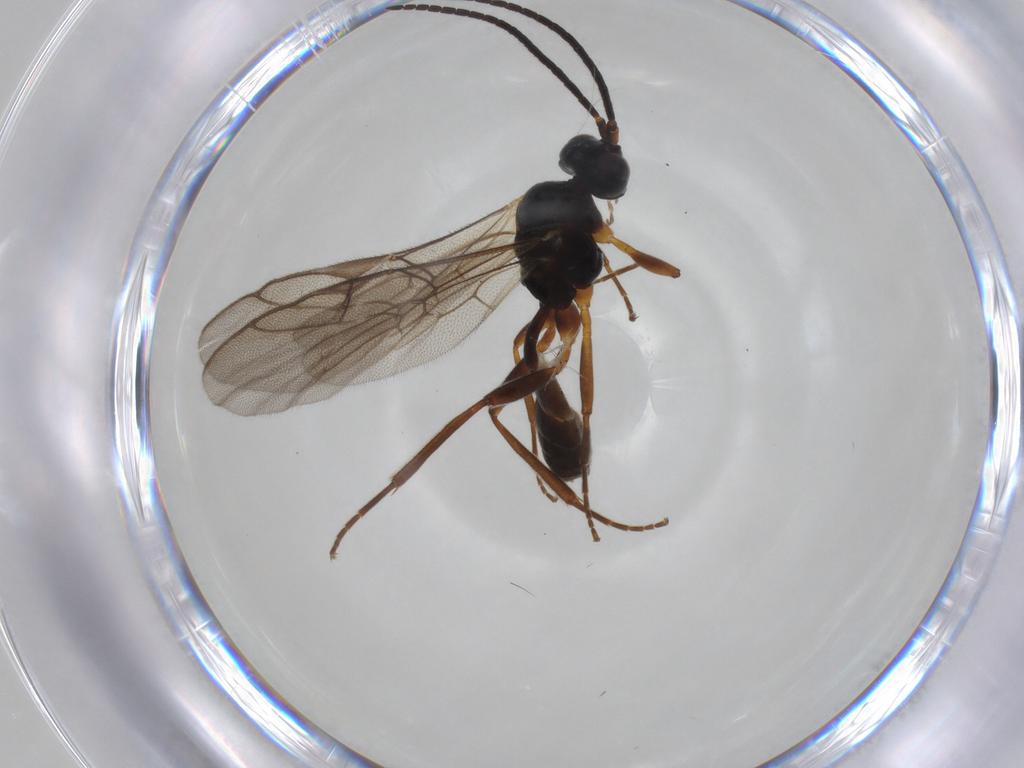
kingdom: Animalia
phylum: Arthropoda
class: Insecta
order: Hymenoptera
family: Ichneumonidae
